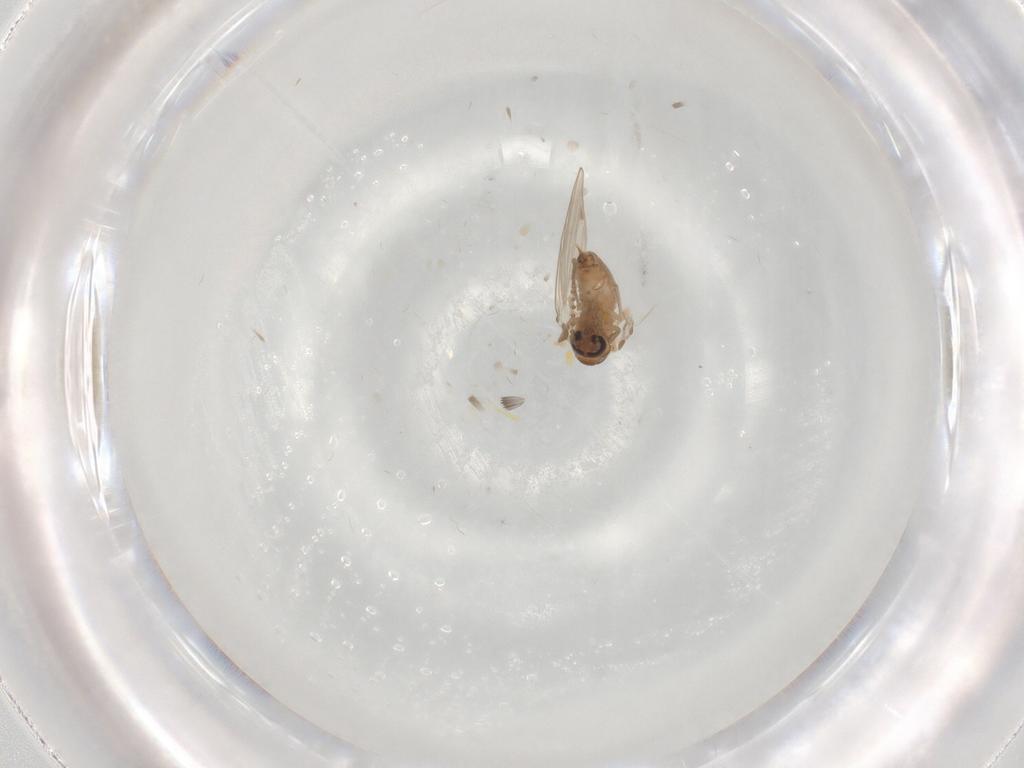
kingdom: Animalia
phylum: Arthropoda
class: Insecta
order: Diptera
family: Psychodidae
